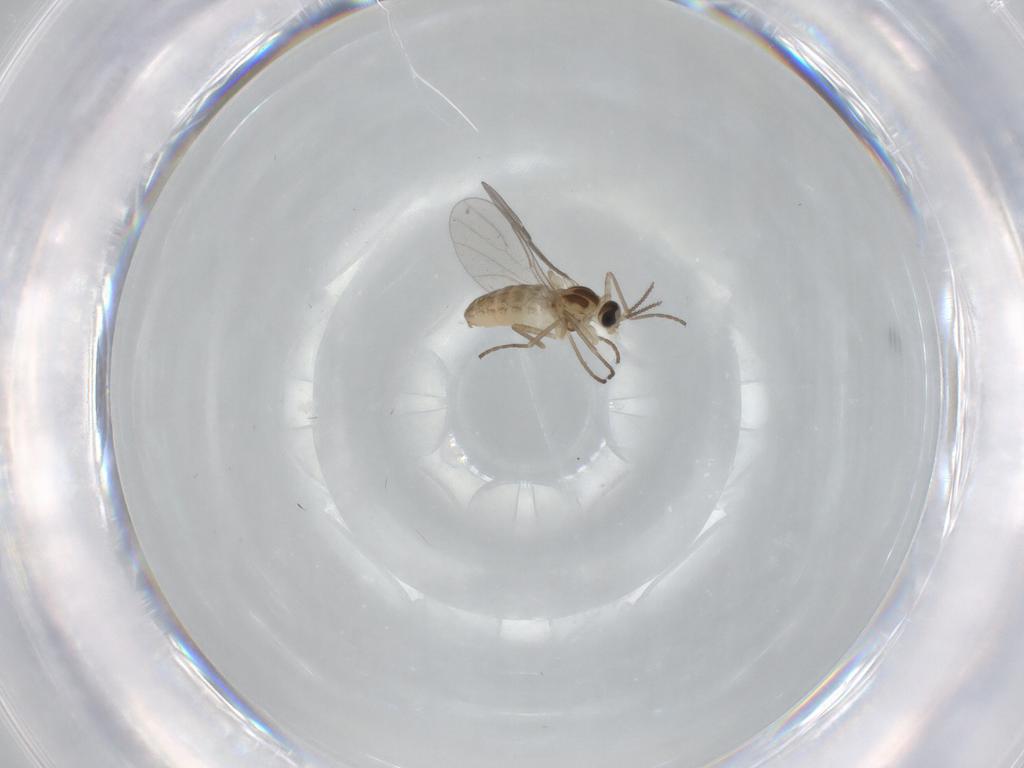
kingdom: Animalia
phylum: Arthropoda
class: Insecta
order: Diptera
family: Cecidomyiidae
